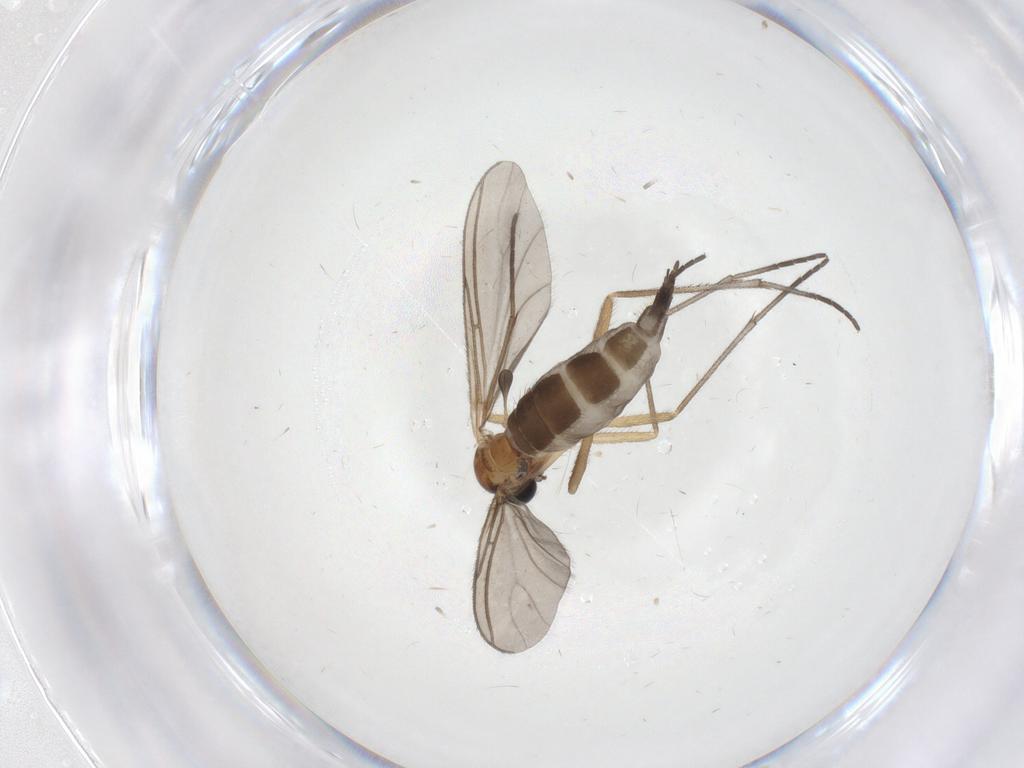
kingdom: Animalia
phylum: Arthropoda
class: Insecta
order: Diptera
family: Sciaridae
